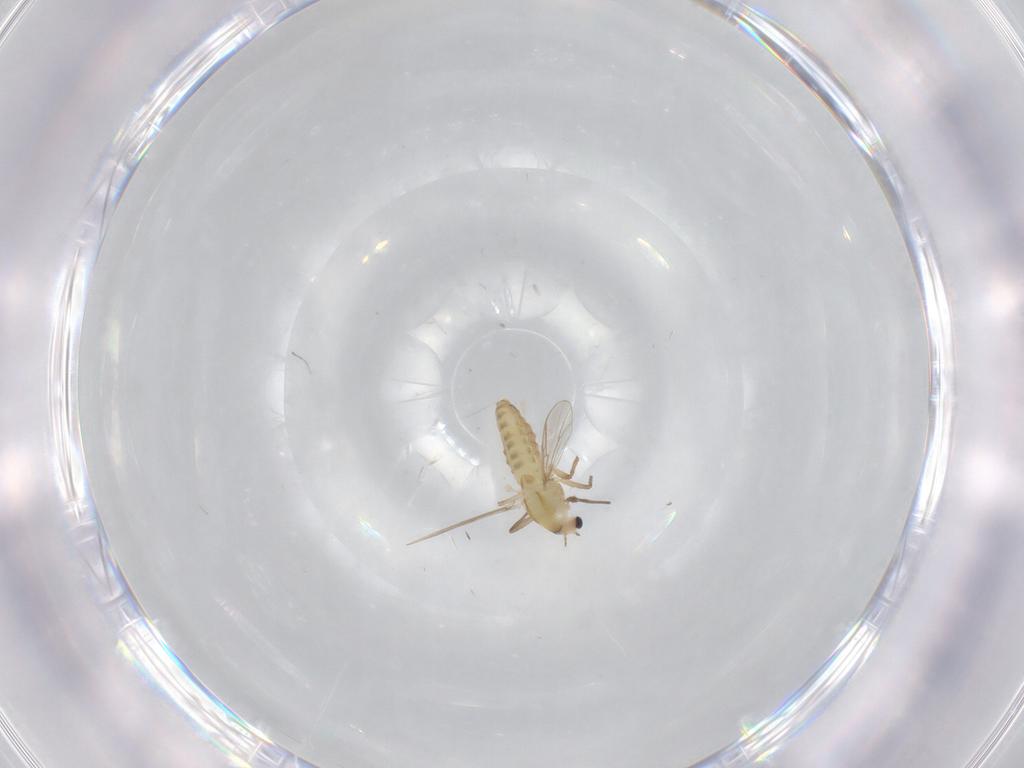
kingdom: Animalia
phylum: Arthropoda
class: Insecta
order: Diptera
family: Chironomidae
